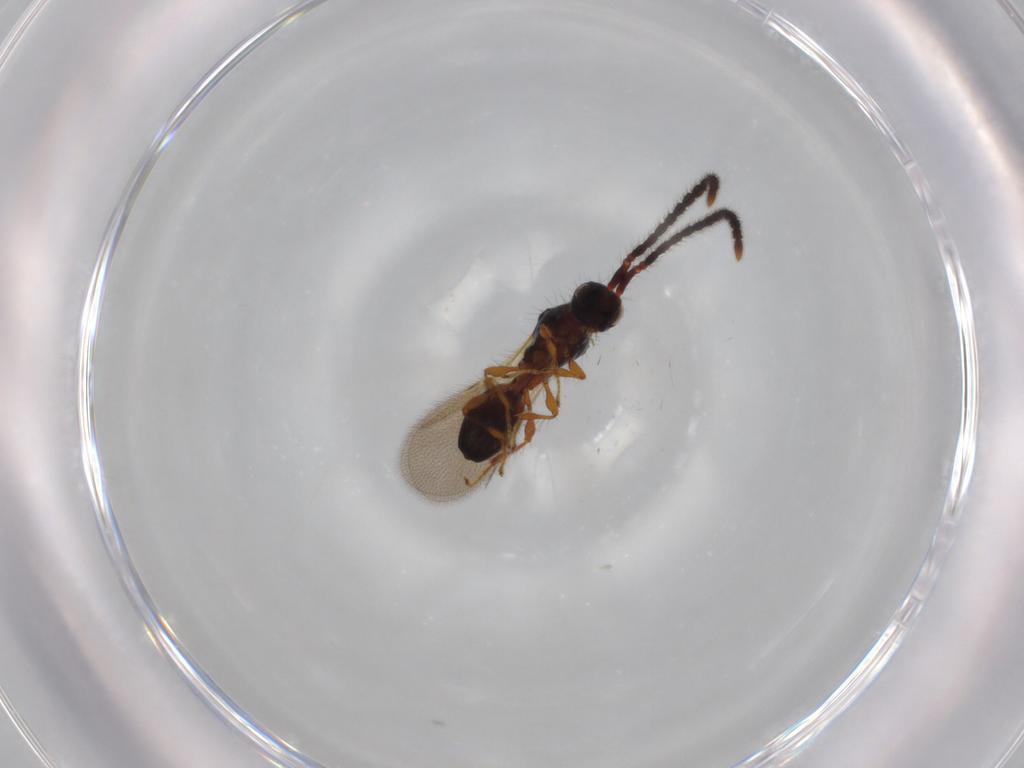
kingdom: Animalia
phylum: Arthropoda
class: Insecta
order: Hymenoptera
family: Diapriidae
